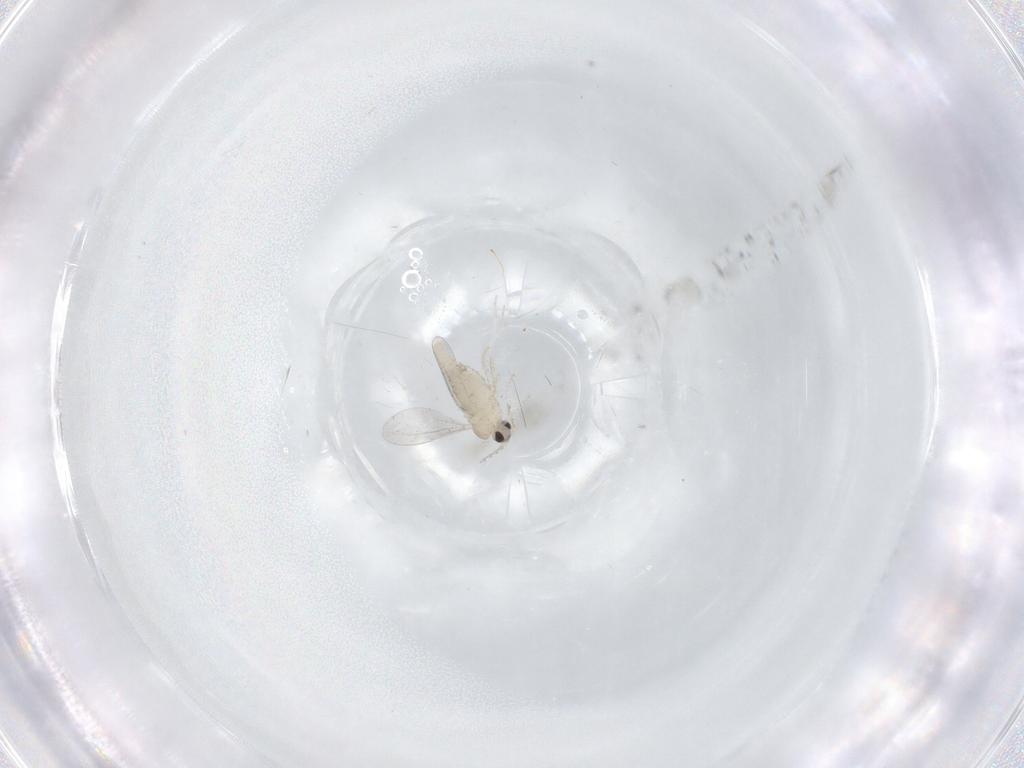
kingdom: Animalia
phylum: Arthropoda
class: Insecta
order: Diptera
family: Cecidomyiidae
